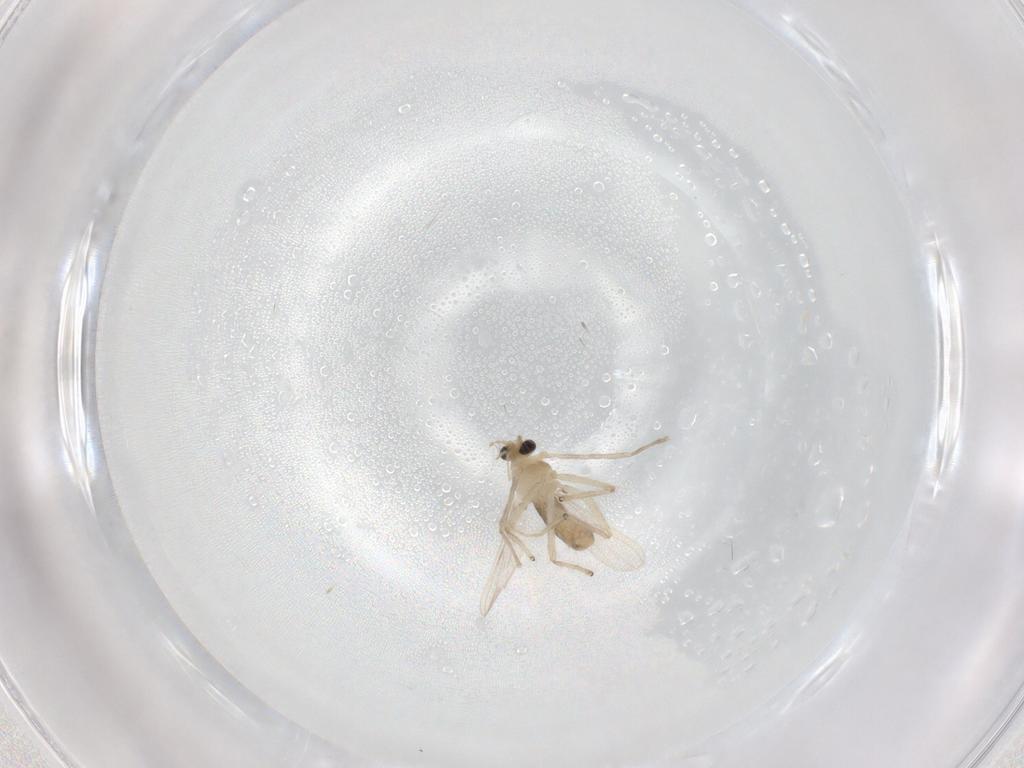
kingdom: Animalia
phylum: Arthropoda
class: Insecta
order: Diptera
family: Chironomidae
